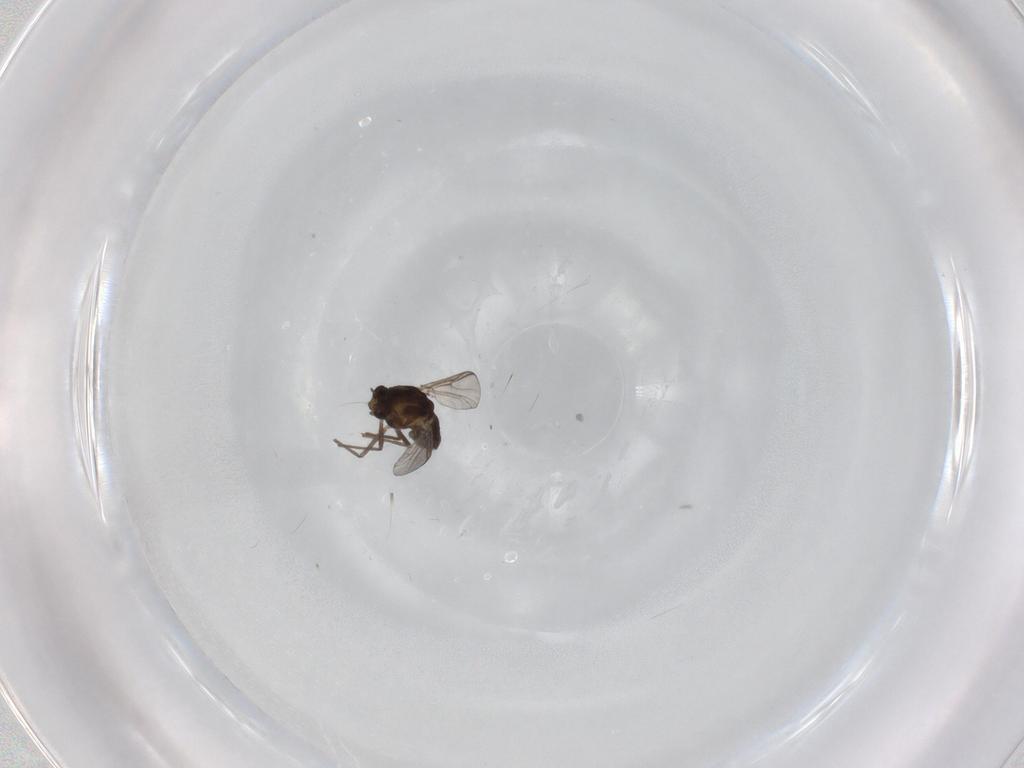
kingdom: Animalia
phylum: Arthropoda
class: Insecta
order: Diptera
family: Chironomidae
